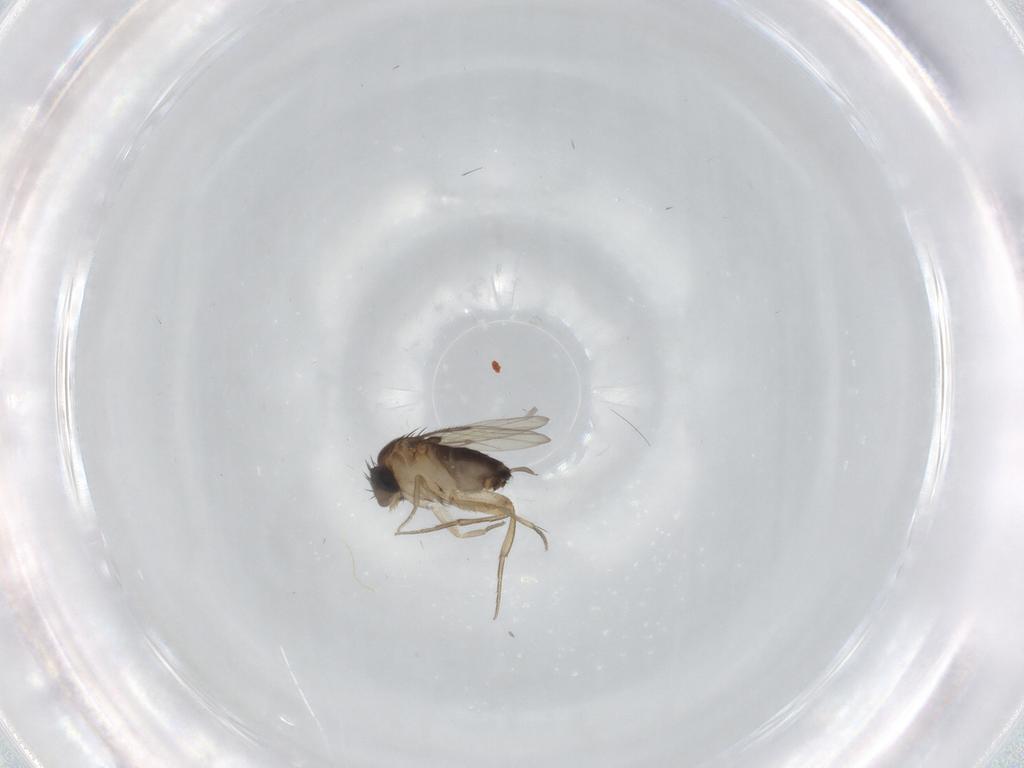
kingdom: Animalia
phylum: Arthropoda
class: Insecta
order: Diptera
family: Phoridae
